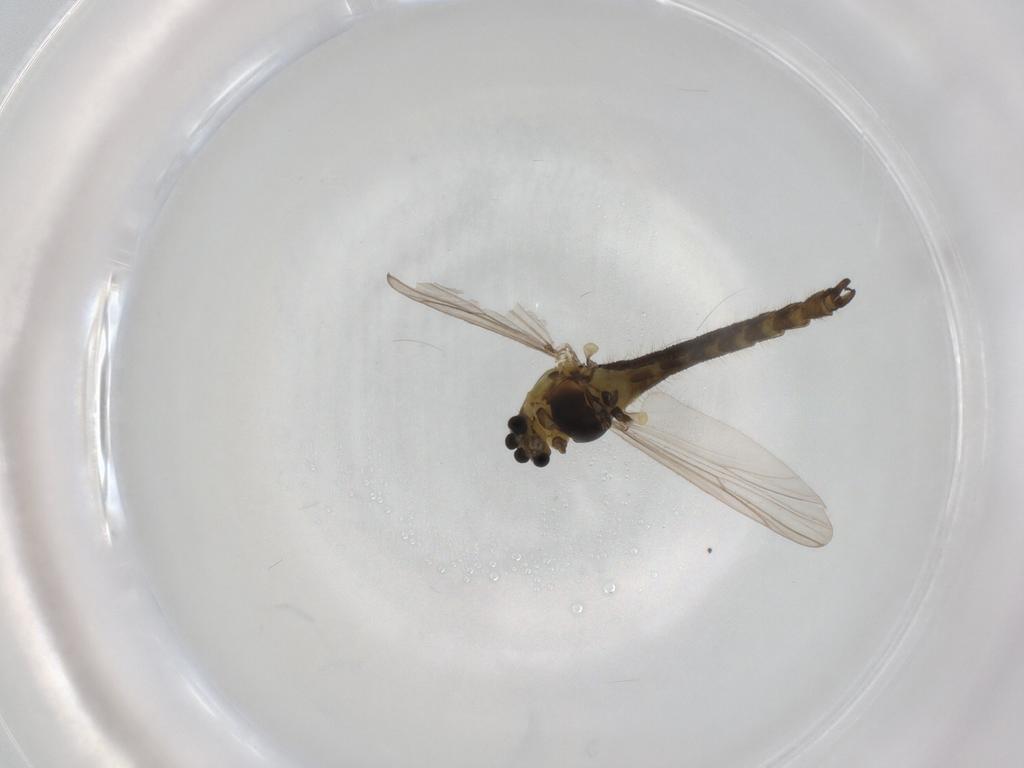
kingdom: Animalia
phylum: Arthropoda
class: Insecta
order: Diptera
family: Chironomidae
